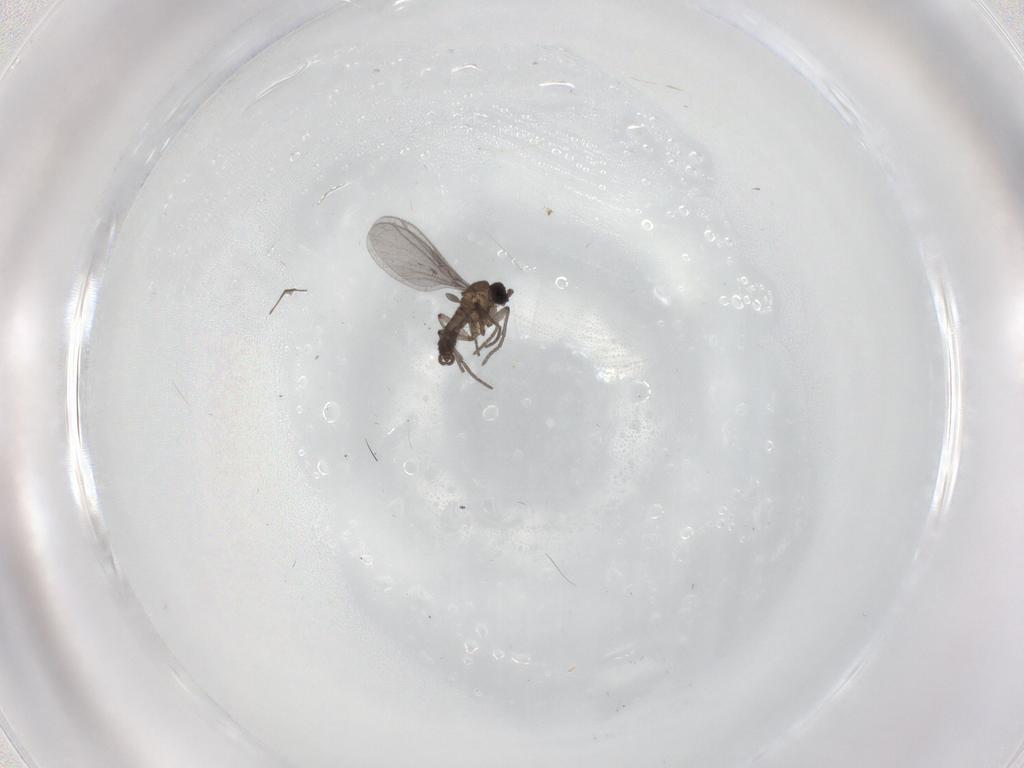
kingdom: Animalia
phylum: Arthropoda
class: Insecta
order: Diptera
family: Sciaridae
